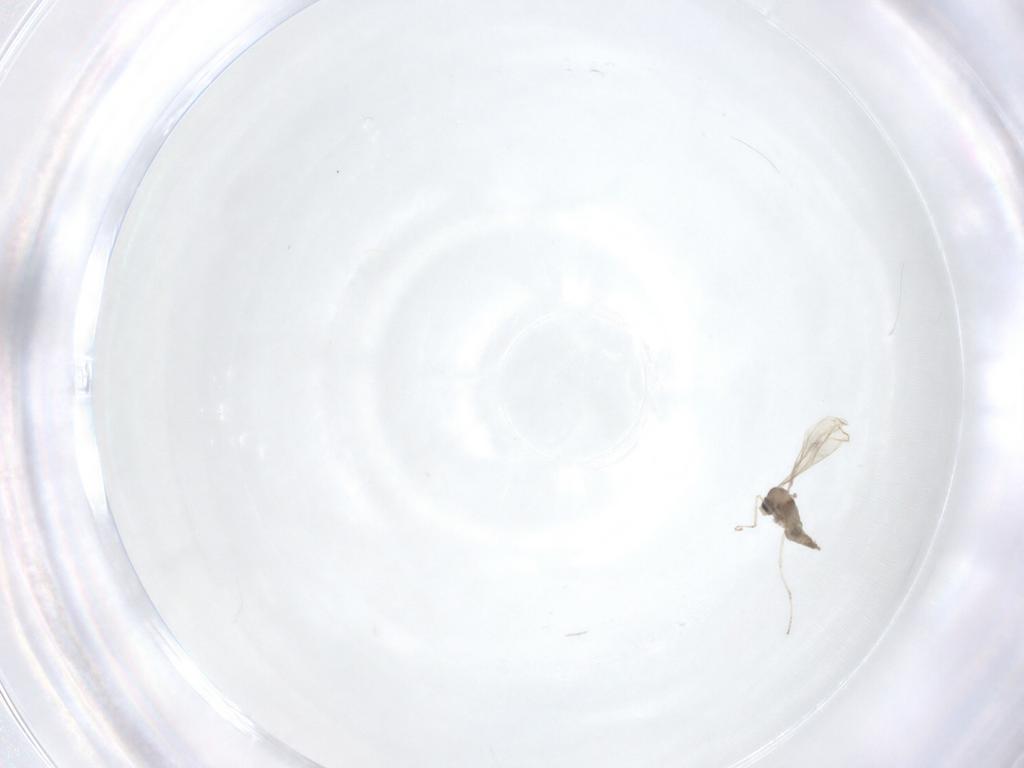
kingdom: Animalia
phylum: Arthropoda
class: Insecta
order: Diptera
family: Chironomidae
